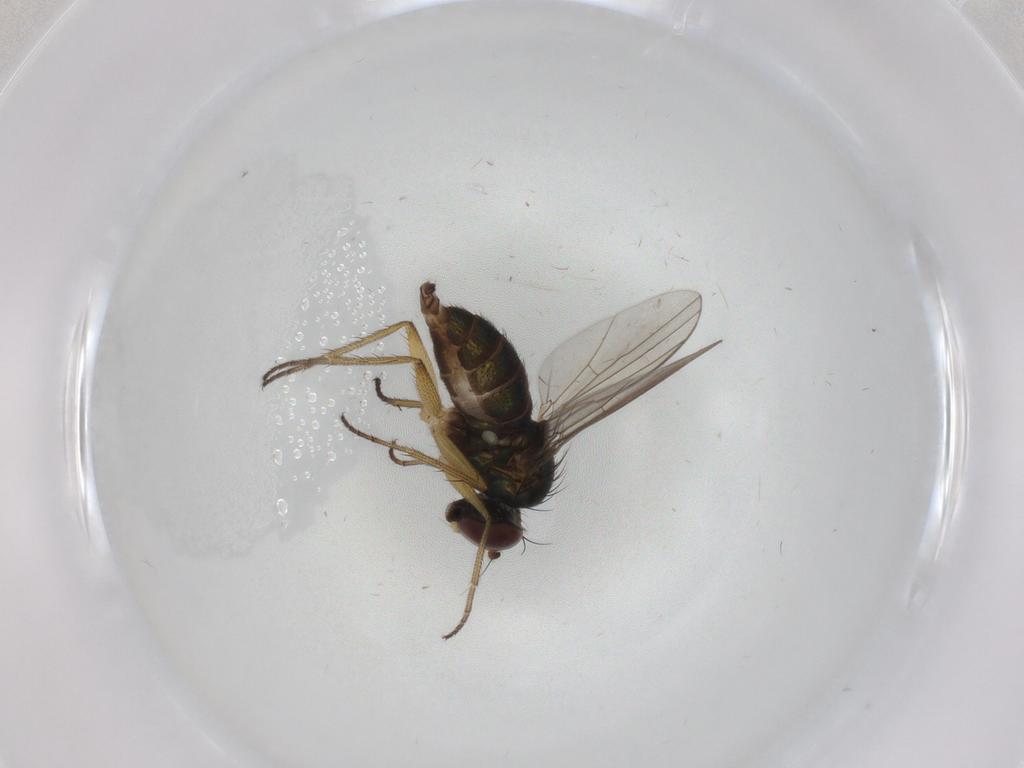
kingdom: Animalia
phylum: Arthropoda
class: Insecta
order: Diptera
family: Dolichopodidae
